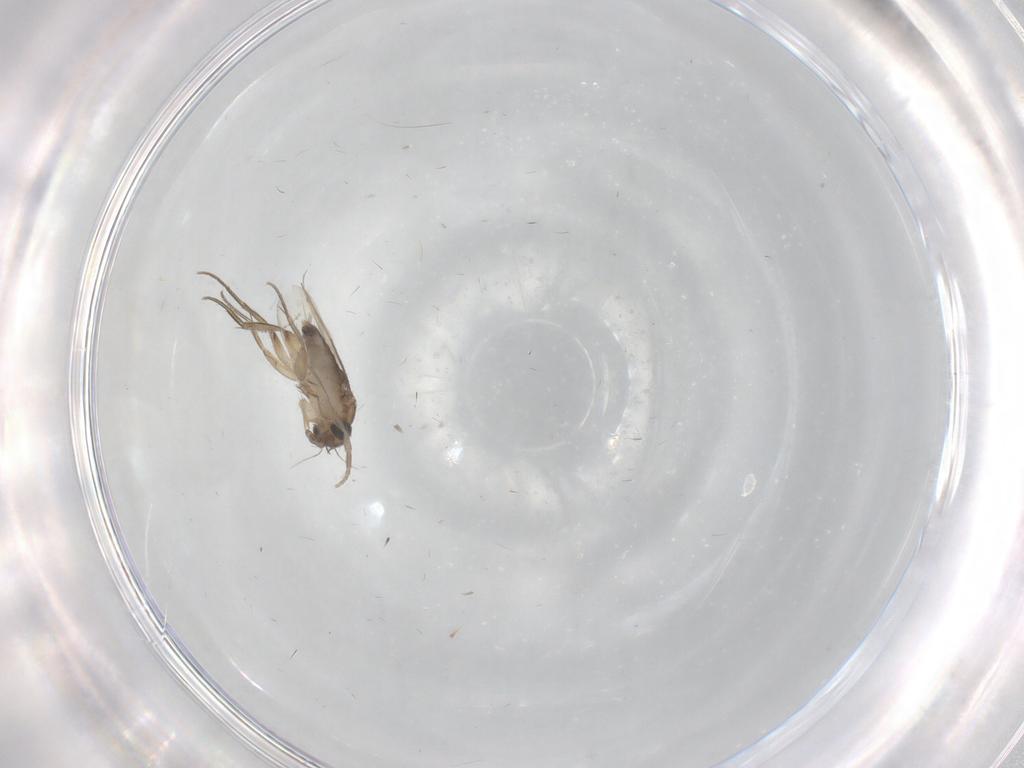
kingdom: Animalia
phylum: Arthropoda
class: Insecta
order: Diptera
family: Phoridae
